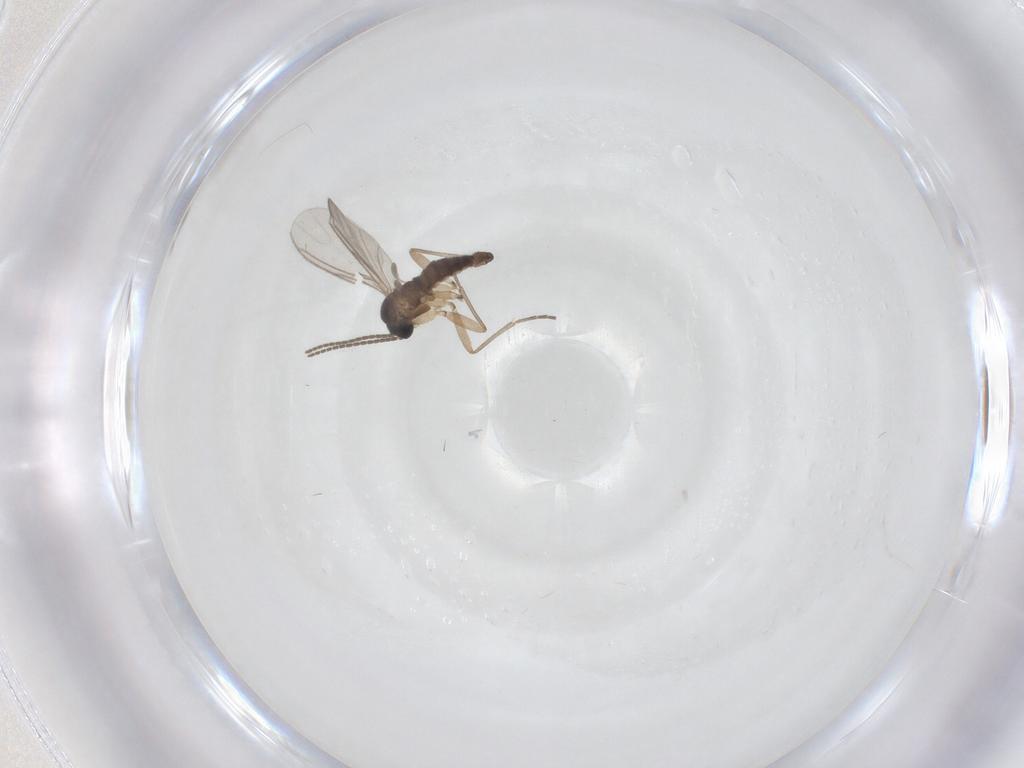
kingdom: Animalia
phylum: Arthropoda
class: Insecta
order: Diptera
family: Sciaridae
